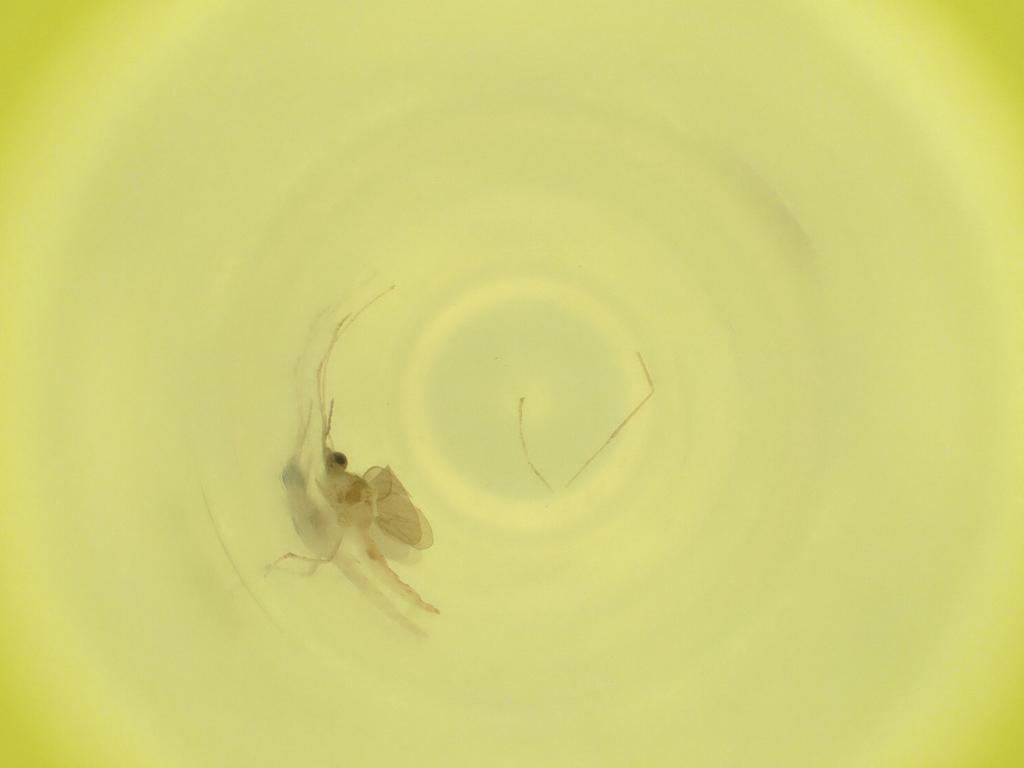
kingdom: Animalia
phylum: Arthropoda
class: Insecta
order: Diptera
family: Cecidomyiidae
